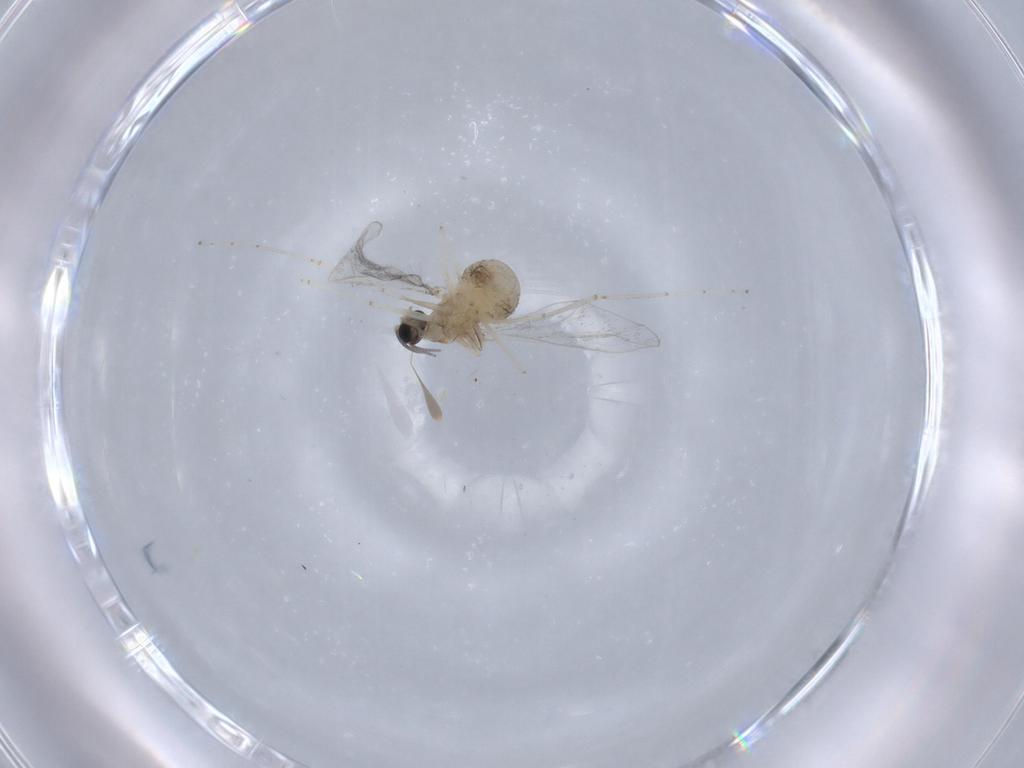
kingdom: Animalia
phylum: Arthropoda
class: Insecta
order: Diptera
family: Cecidomyiidae
